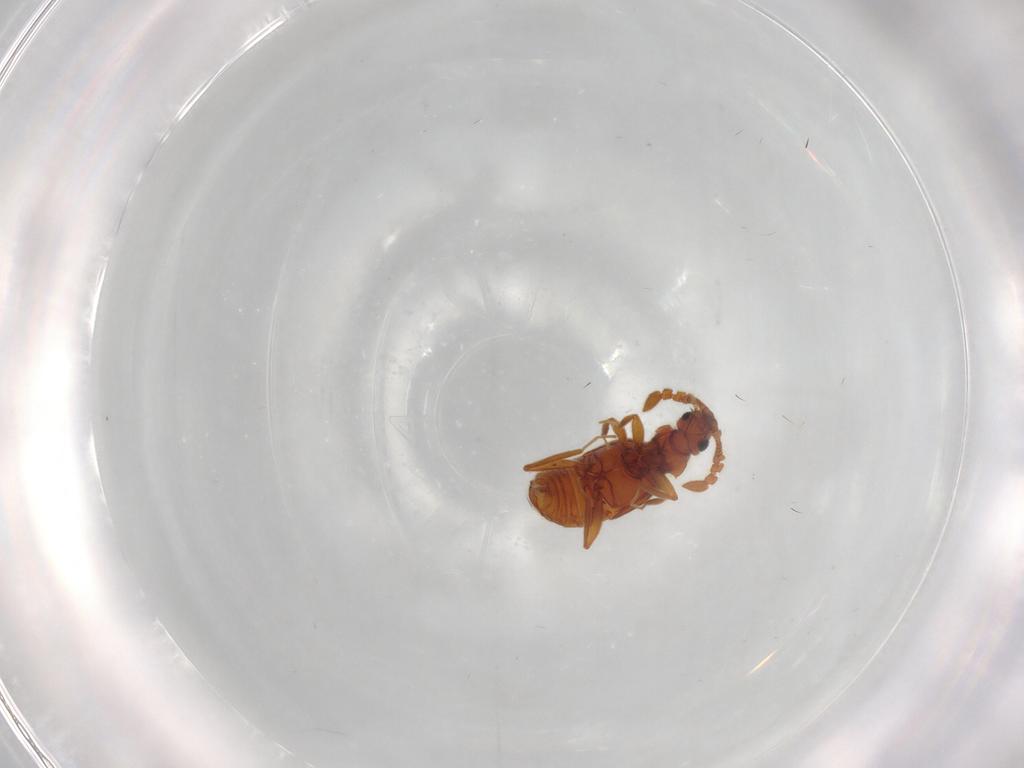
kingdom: Animalia
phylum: Arthropoda
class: Insecta
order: Coleoptera
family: Staphylinidae
